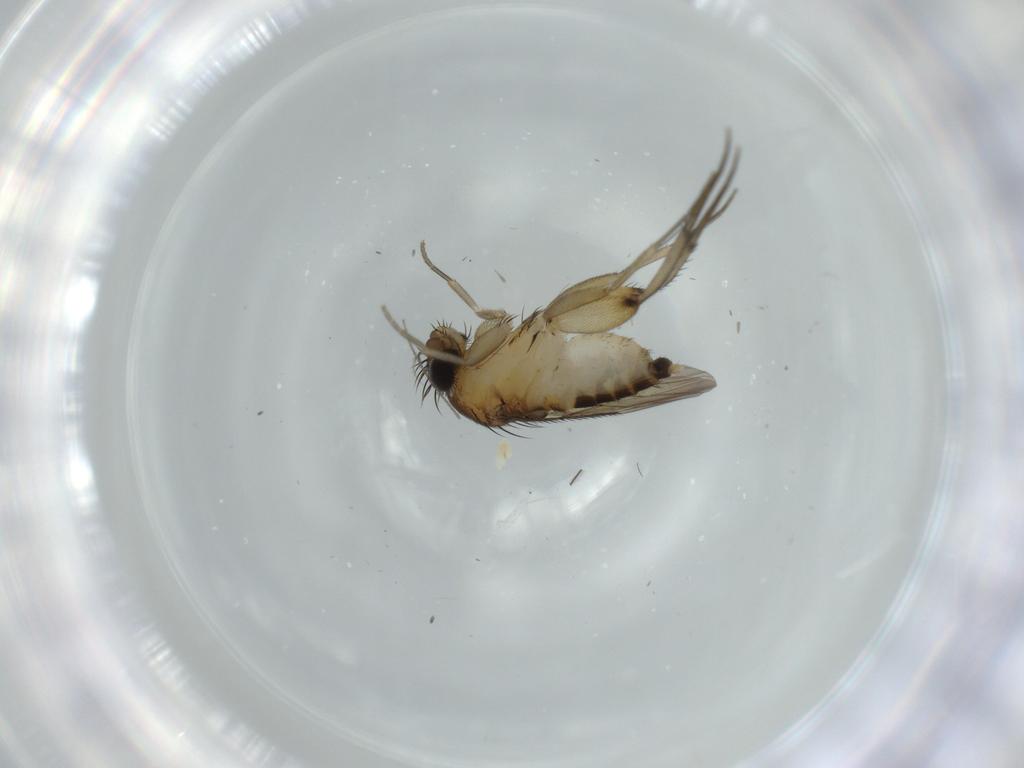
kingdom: Animalia
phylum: Arthropoda
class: Insecta
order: Diptera
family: Phoridae
